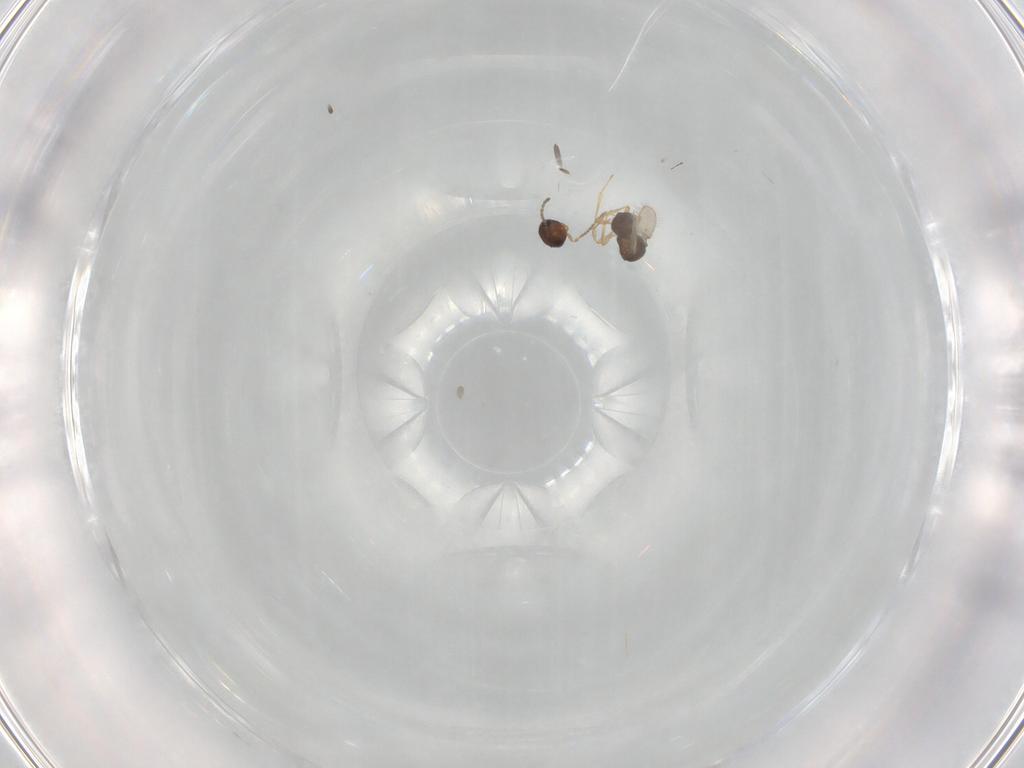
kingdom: Animalia
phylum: Arthropoda
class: Insecta
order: Hymenoptera
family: Scelionidae
